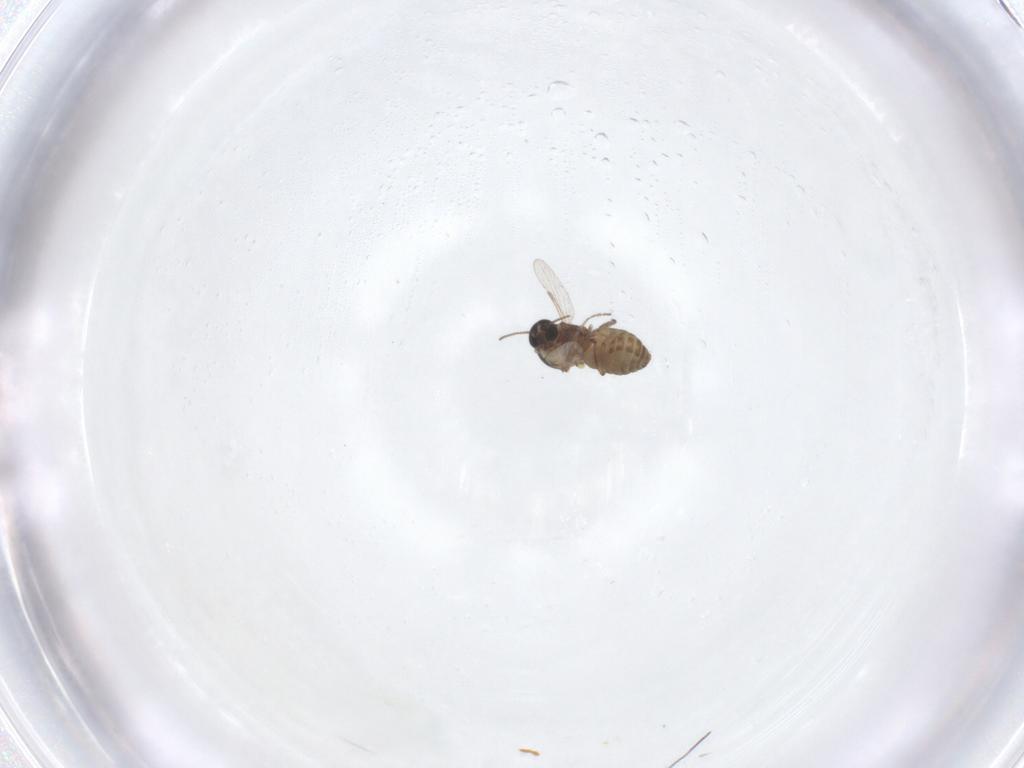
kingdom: Animalia
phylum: Arthropoda
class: Insecta
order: Diptera
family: Ceratopogonidae
